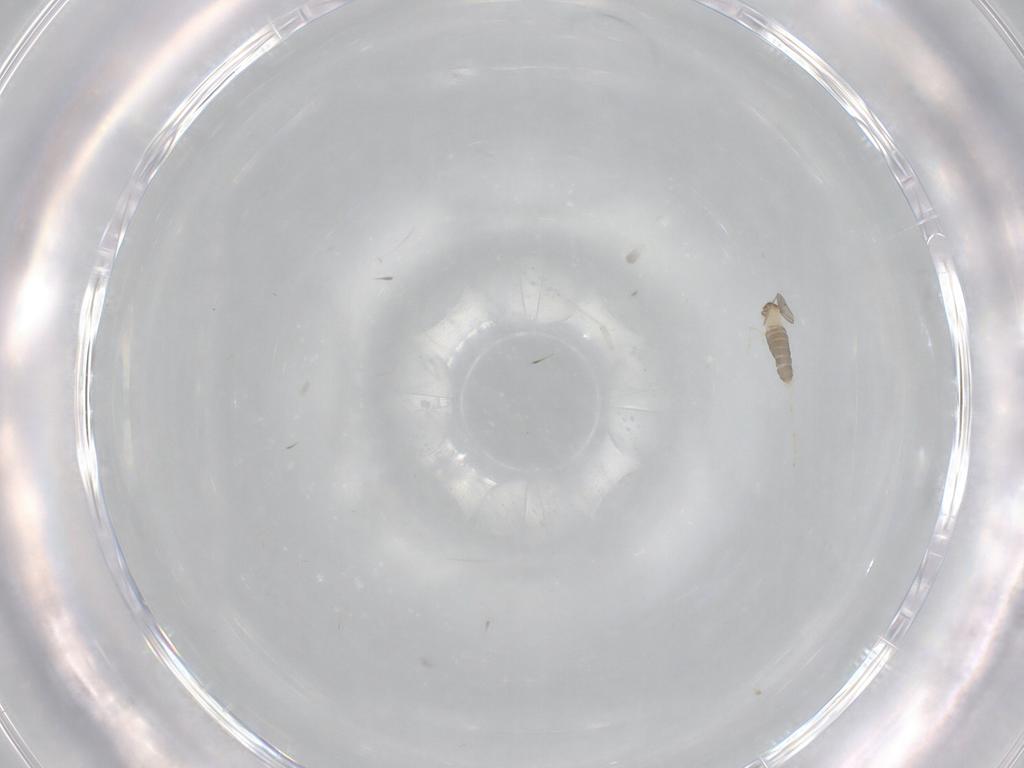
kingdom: Animalia
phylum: Arthropoda
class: Insecta
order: Diptera
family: Cecidomyiidae
